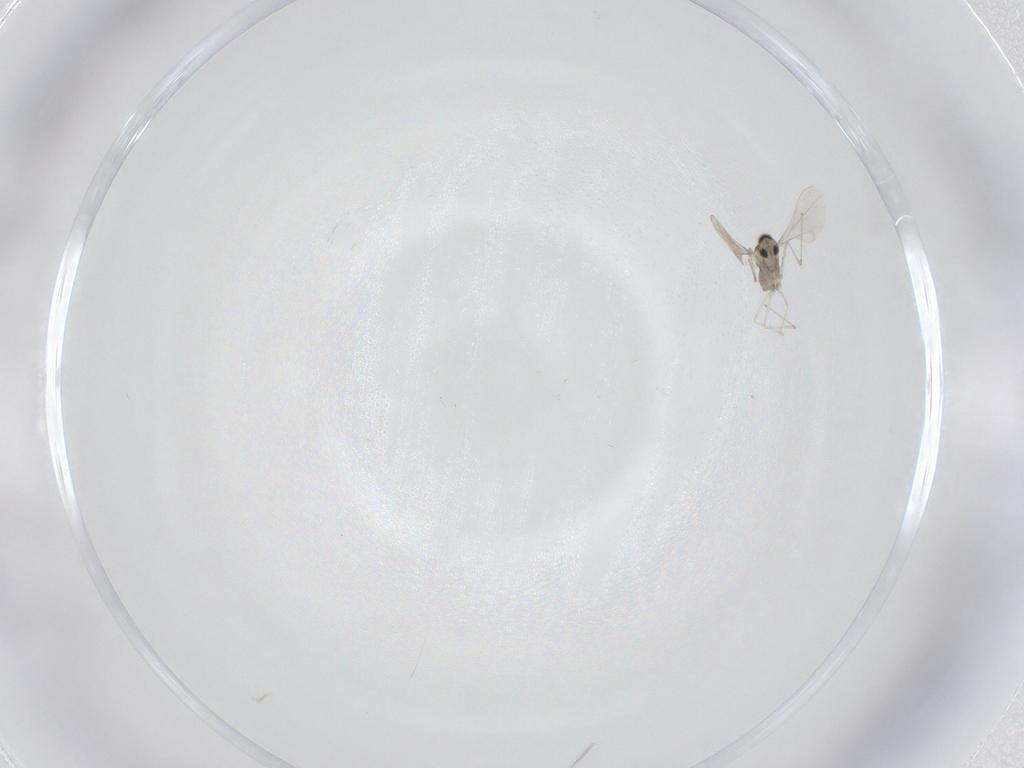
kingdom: Animalia
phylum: Arthropoda
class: Insecta
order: Diptera
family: Cecidomyiidae
